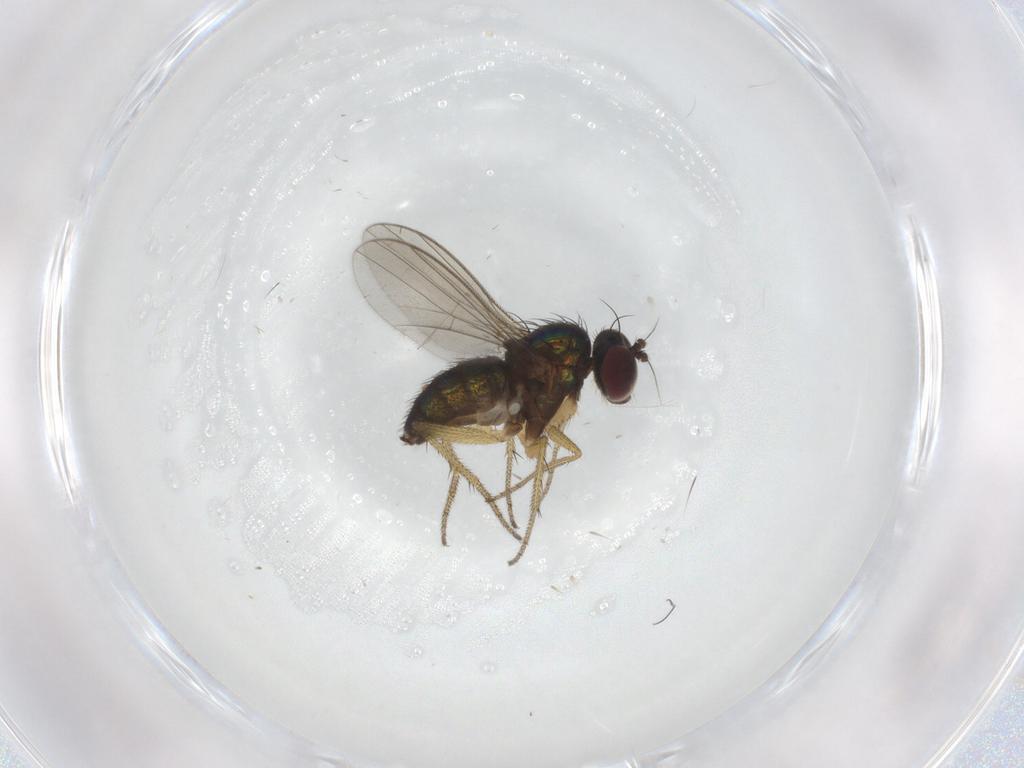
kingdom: Animalia
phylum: Arthropoda
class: Insecta
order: Diptera
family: Dolichopodidae
